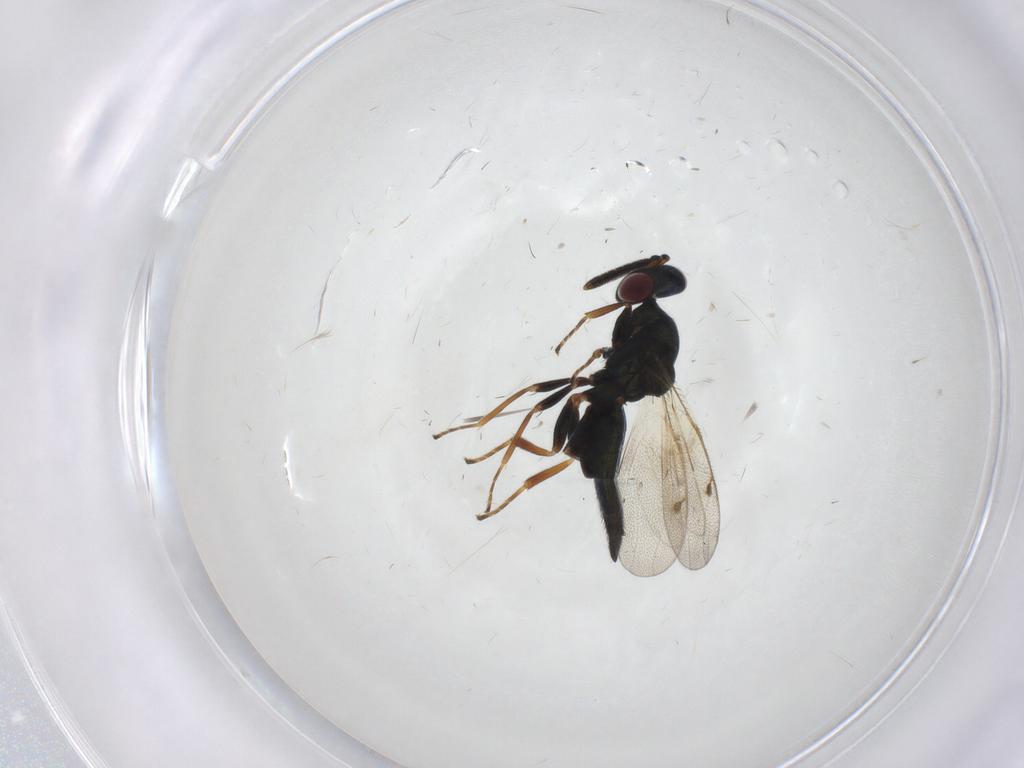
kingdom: Animalia
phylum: Arthropoda
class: Insecta
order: Hymenoptera
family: Pteromalidae
